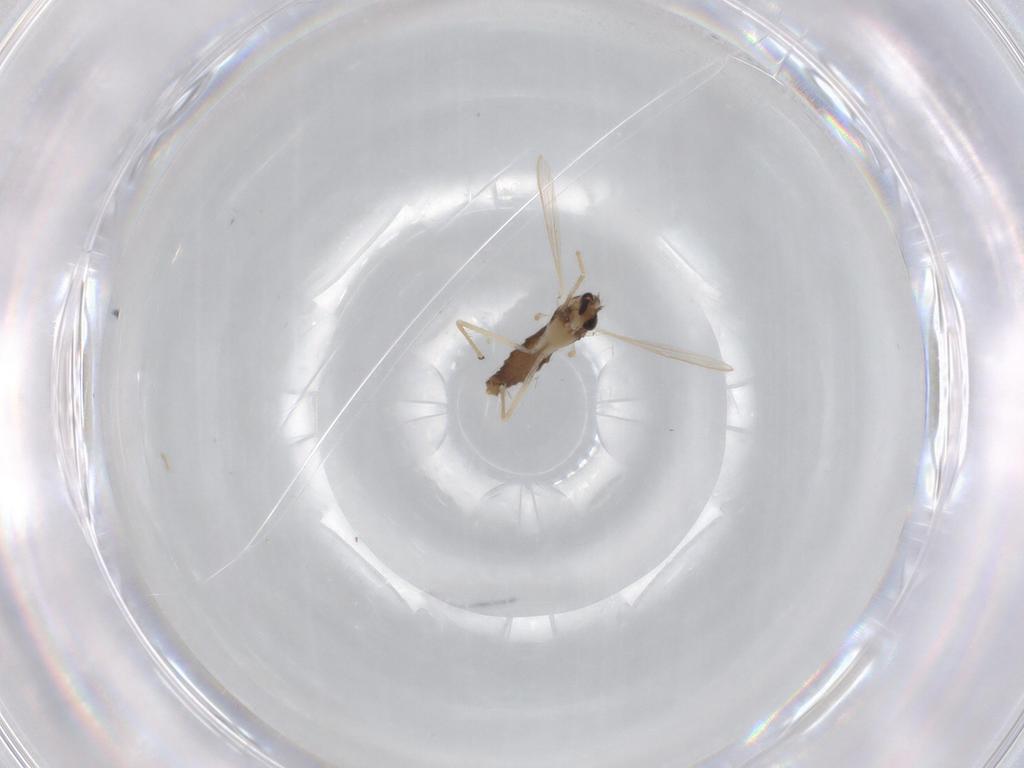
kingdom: Animalia
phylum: Arthropoda
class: Insecta
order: Diptera
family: Chironomidae
